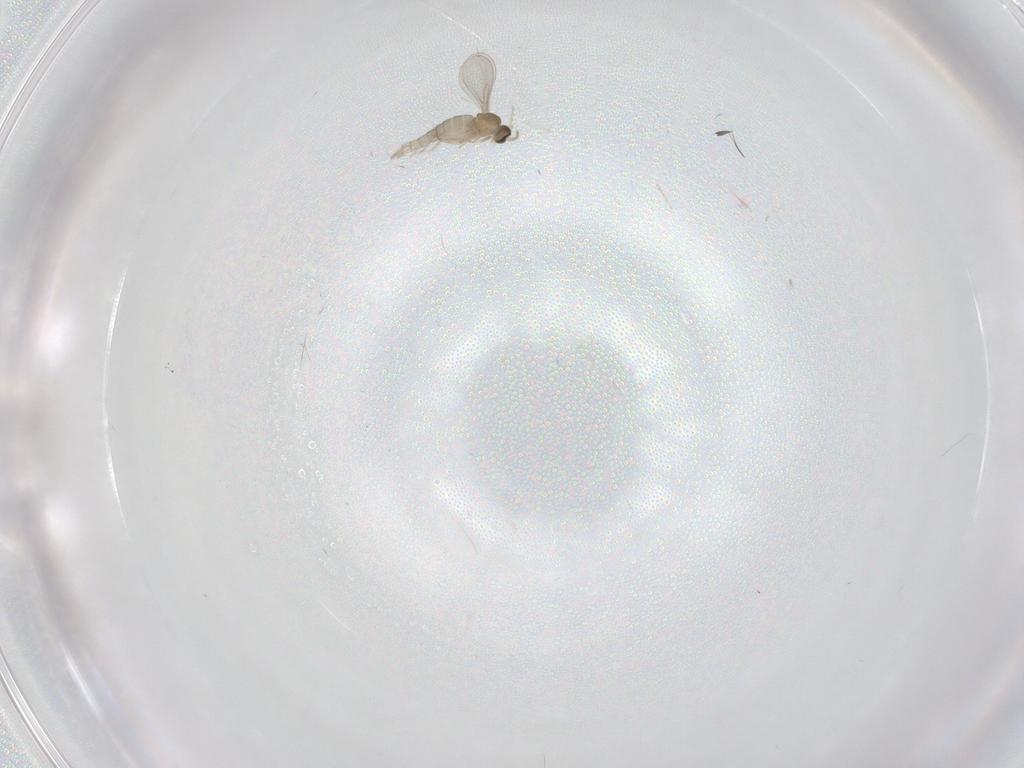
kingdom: Animalia
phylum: Arthropoda
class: Insecta
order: Diptera
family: Cecidomyiidae
